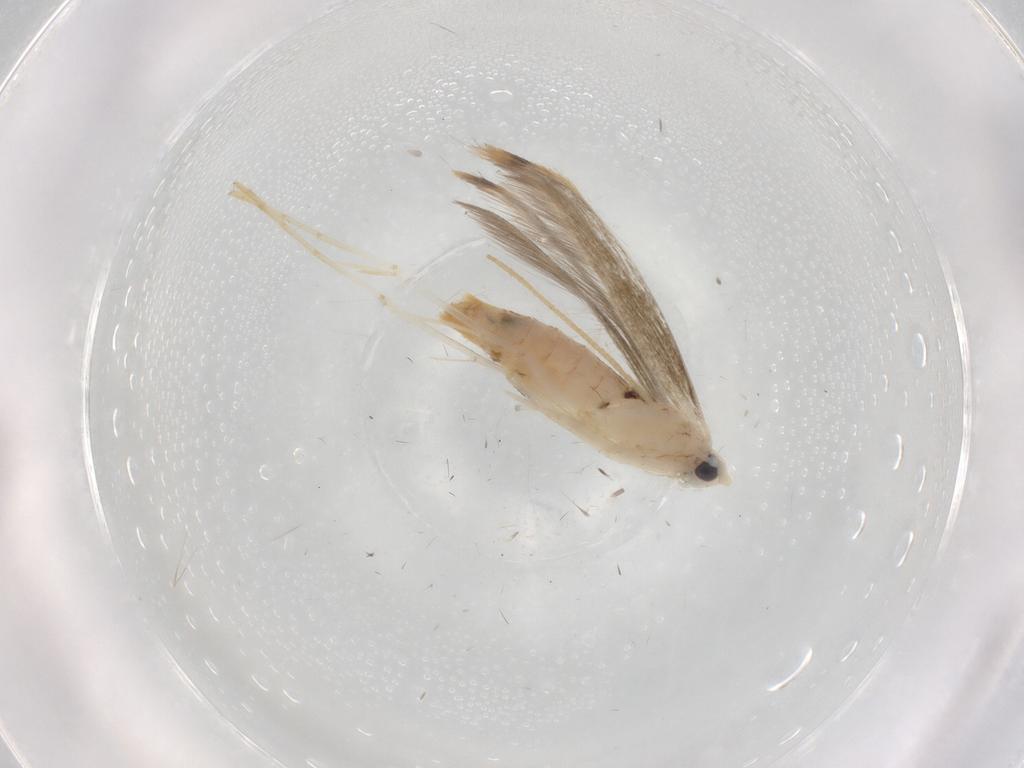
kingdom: Animalia
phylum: Arthropoda
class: Insecta
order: Lepidoptera
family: Lyonetiidae
